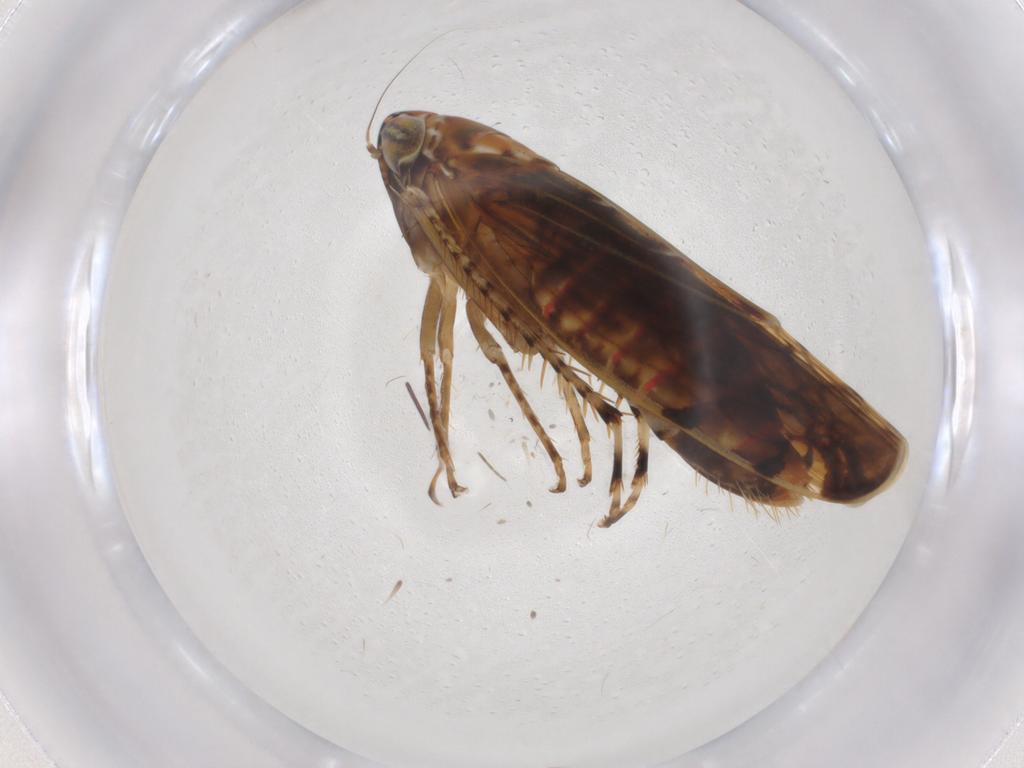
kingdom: Animalia
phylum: Arthropoda
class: Insecta
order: Hemiptera
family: Cicadellidae
